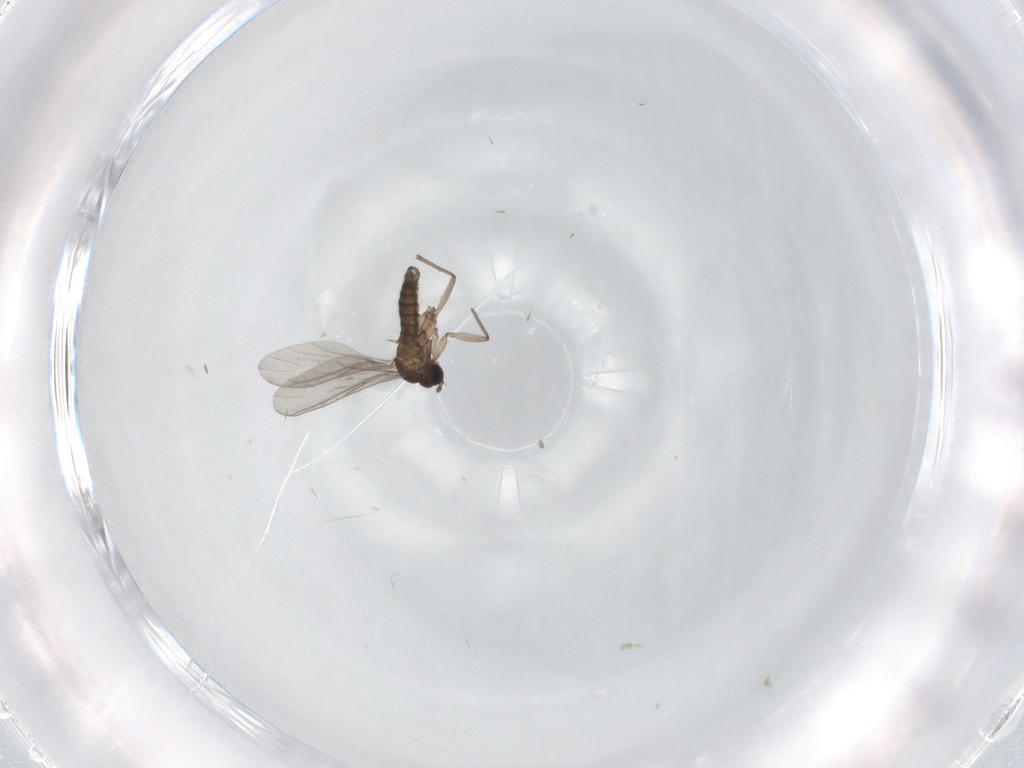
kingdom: Animalia
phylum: Arthropoda
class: Insecta
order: Diptera
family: Sciaridae
